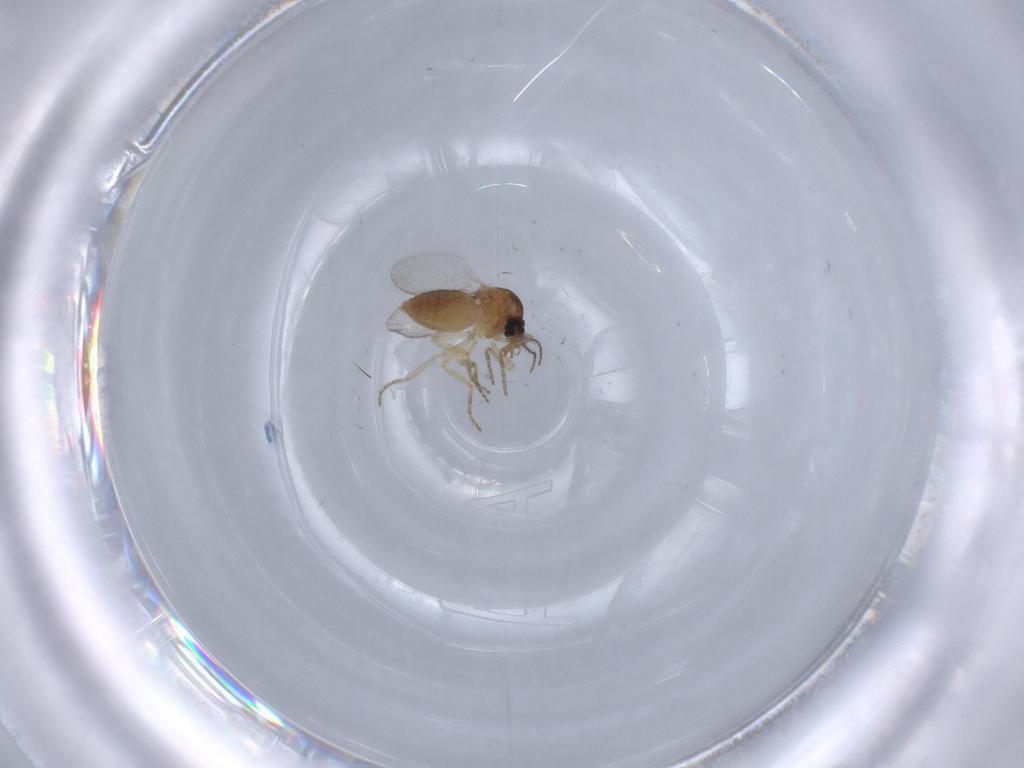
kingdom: Animalia
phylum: Arthropoda
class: Insecta
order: Diptera
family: Ceratopogonidae
